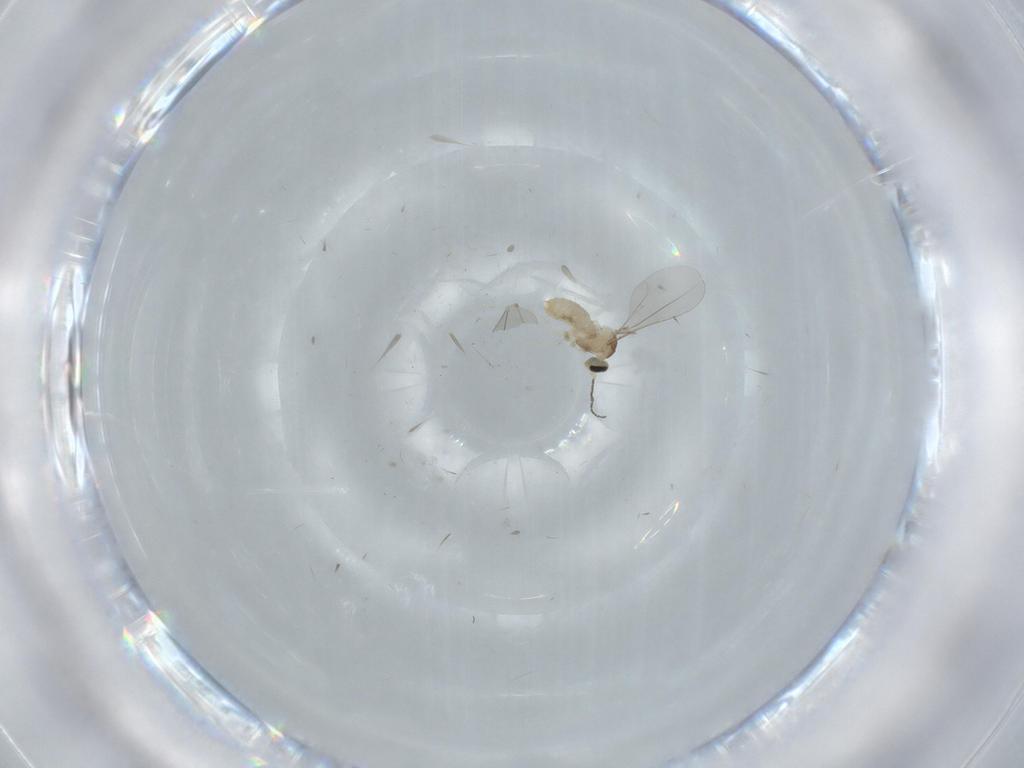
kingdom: Animalia
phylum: Arthropoda
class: Insecta
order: Diptera
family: Cecidomyiidae
